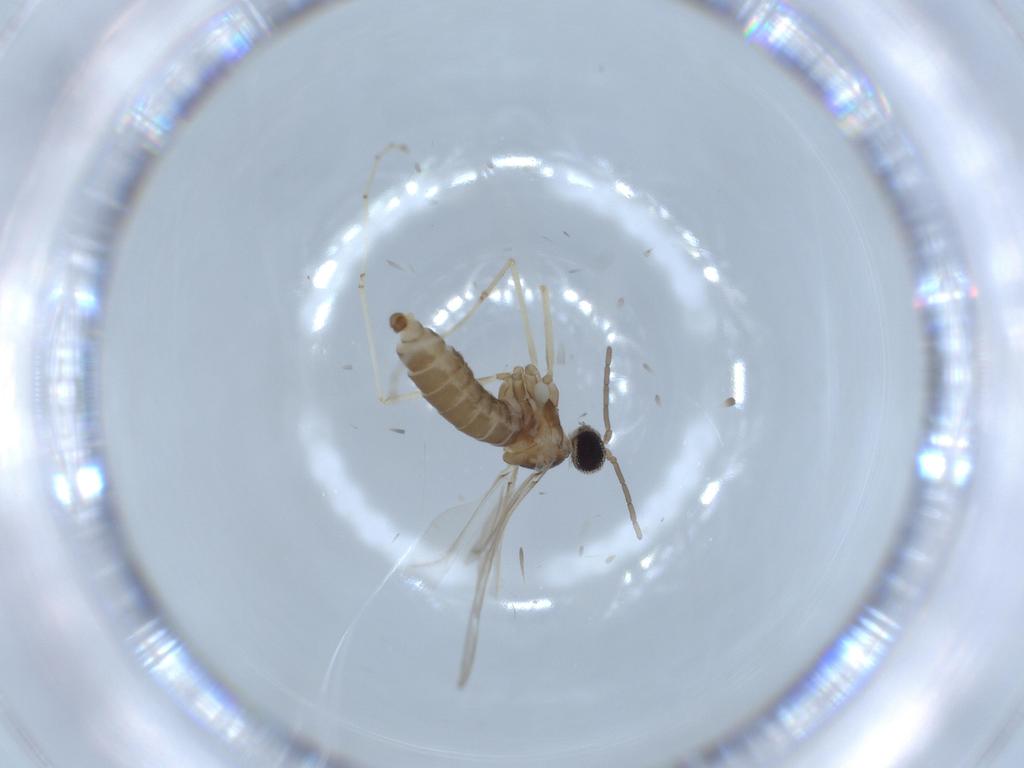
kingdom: Animalia
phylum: Arthropoda
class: Insecta
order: Diptera
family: Cecidomyiidae
